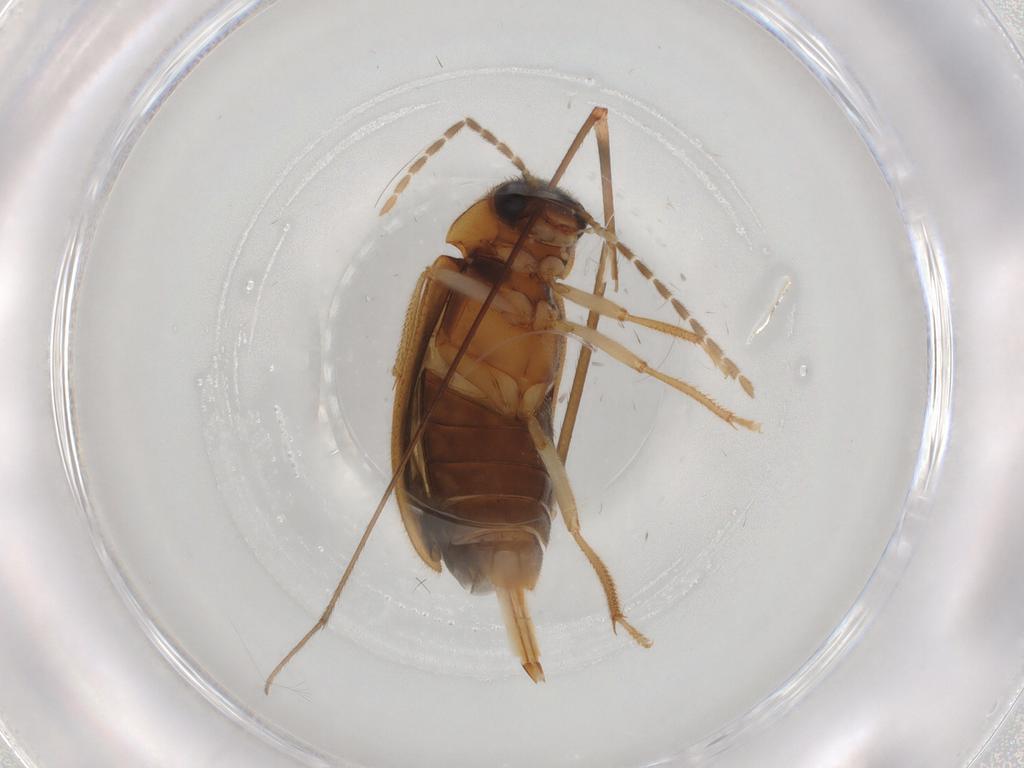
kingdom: Animalia
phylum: Arthropoda
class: Insecta
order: Coleoptera
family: Ptilodactylidae
